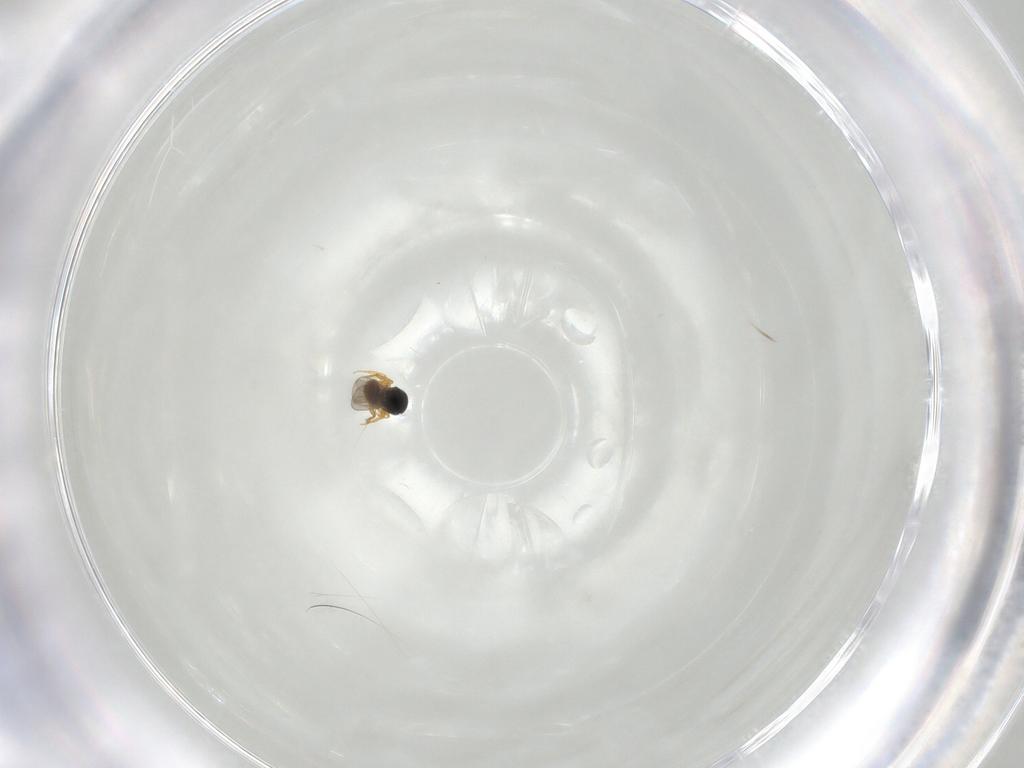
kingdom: Animalia
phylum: Arthropoda
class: Insecta
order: Hymenoptera
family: Platygastridae
